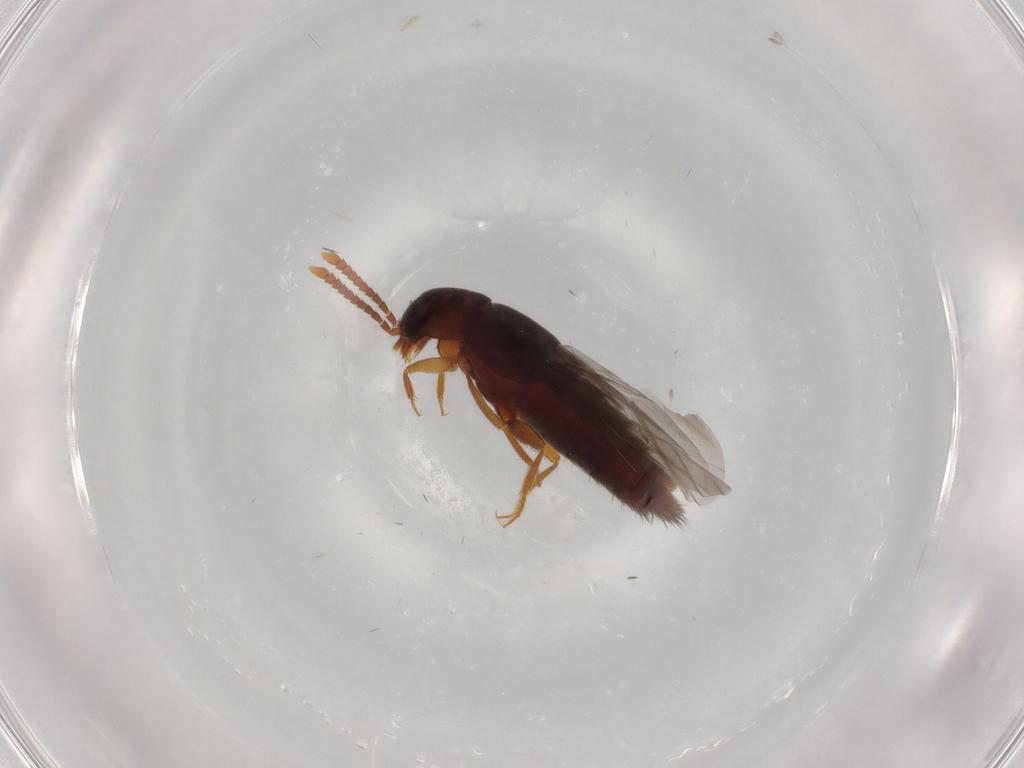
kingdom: Animalia
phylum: Arthropoda
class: Insecta
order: Coleoptera
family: Staphylinidae
